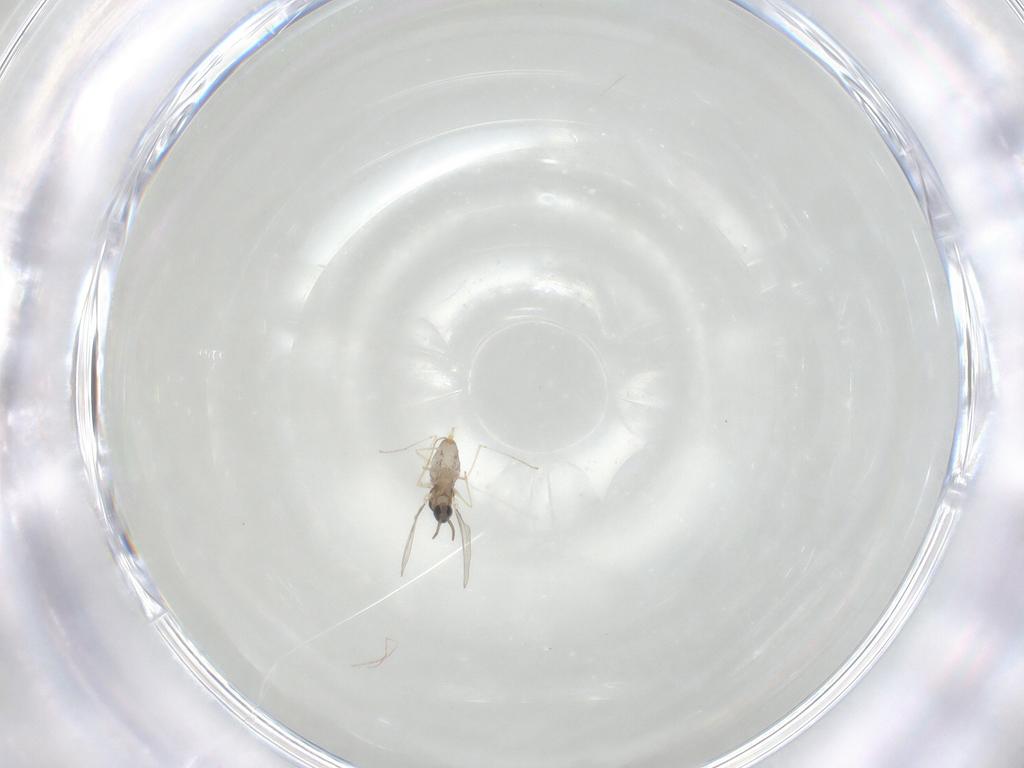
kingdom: Animalia
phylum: Arthropoda
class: Insecta
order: Diptera
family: Cecidomyiidae
